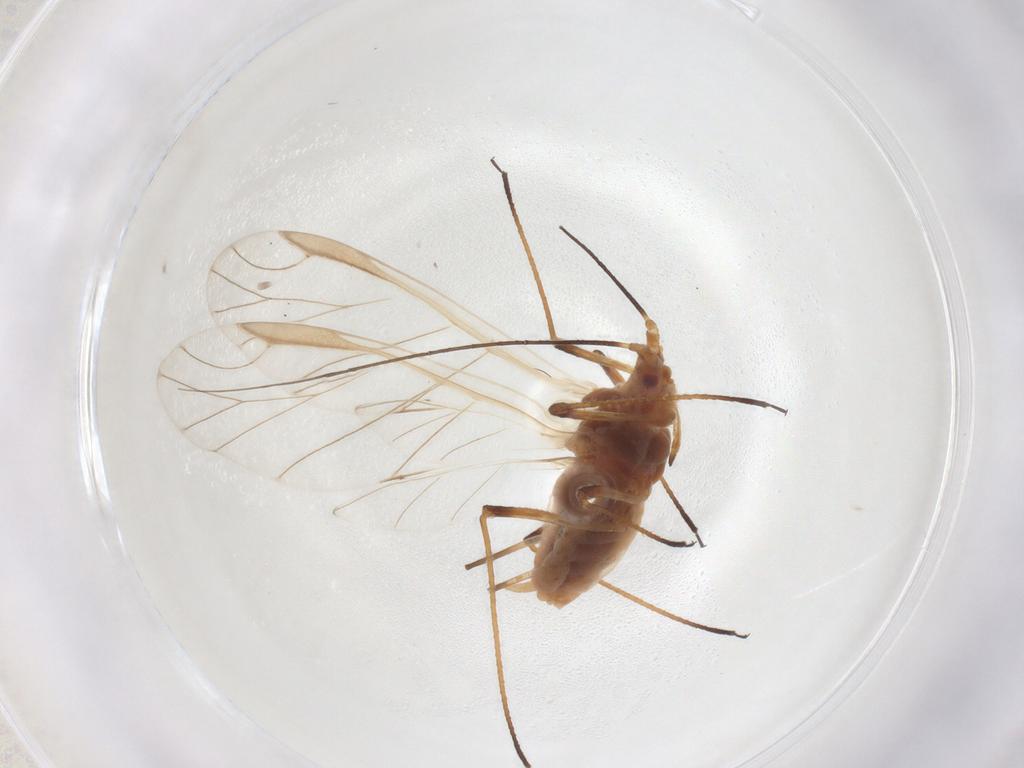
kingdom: Animalia
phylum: Arthropoda
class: Insecta
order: Hemiptera
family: Aphididae
